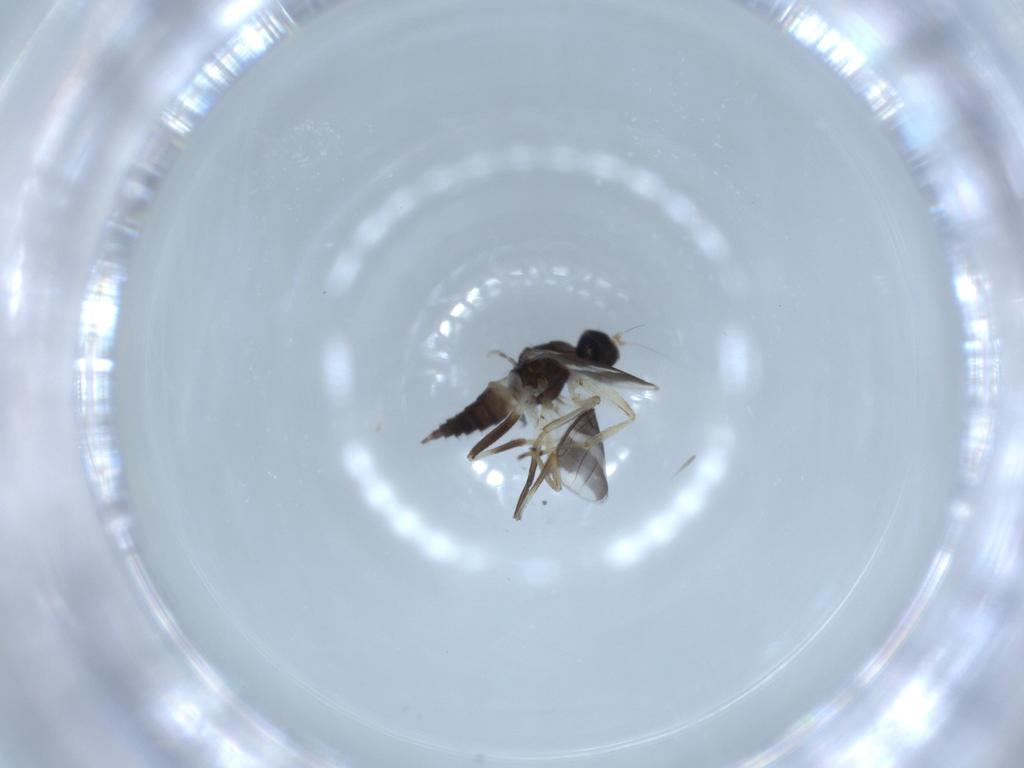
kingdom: Animalia
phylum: Arthropoda
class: Insecta
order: Diptera
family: Hybotidae
